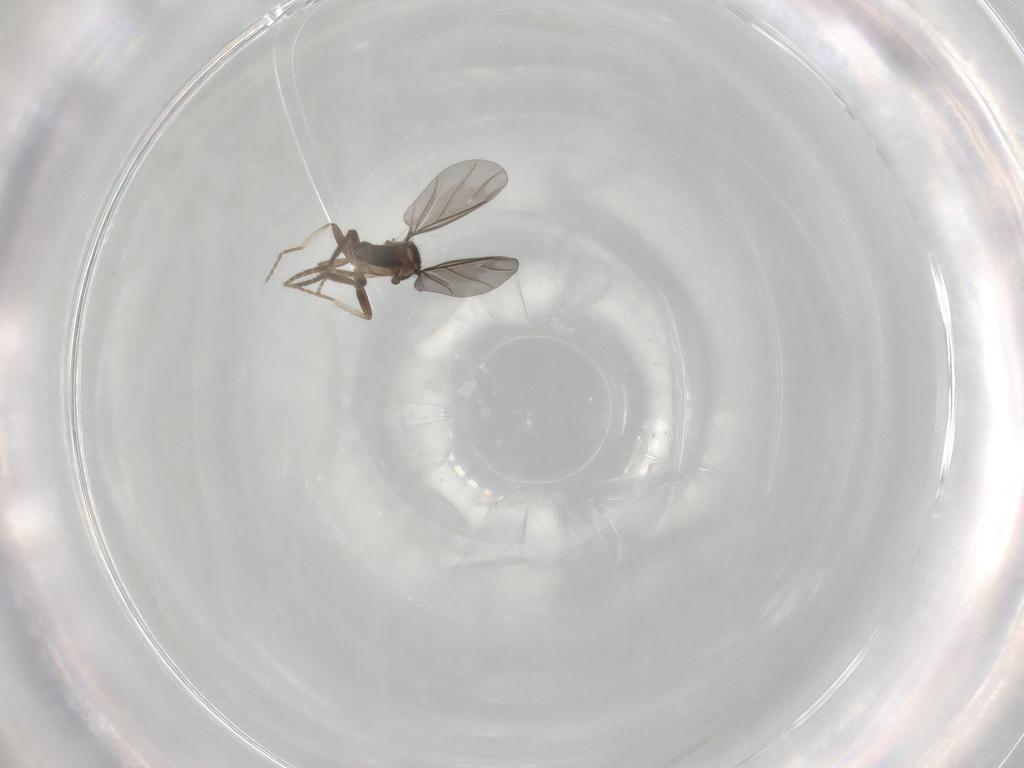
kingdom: Animalia
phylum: Arthropoda
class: Insecta
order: Diptera
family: Phoridae
